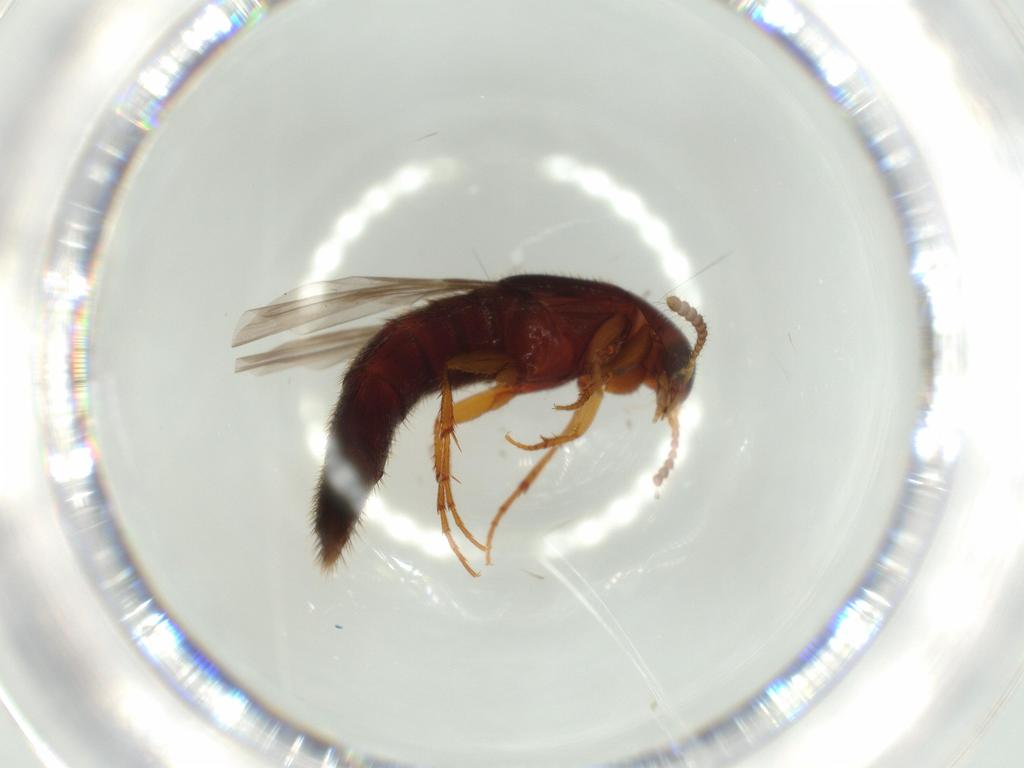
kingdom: Animalia
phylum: Arthropoda
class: Insecta
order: Coleoptera
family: Staphylinidae
